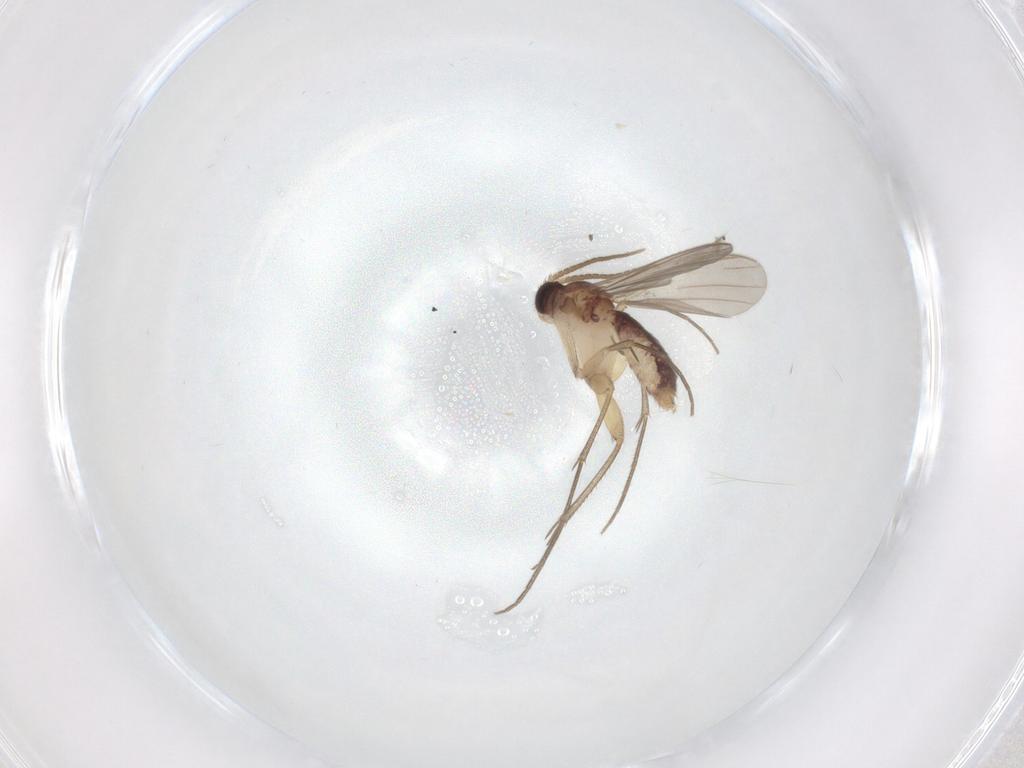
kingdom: Animalia
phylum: Arthropoda
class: Insecta
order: Diptera
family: Mycetophilidae
